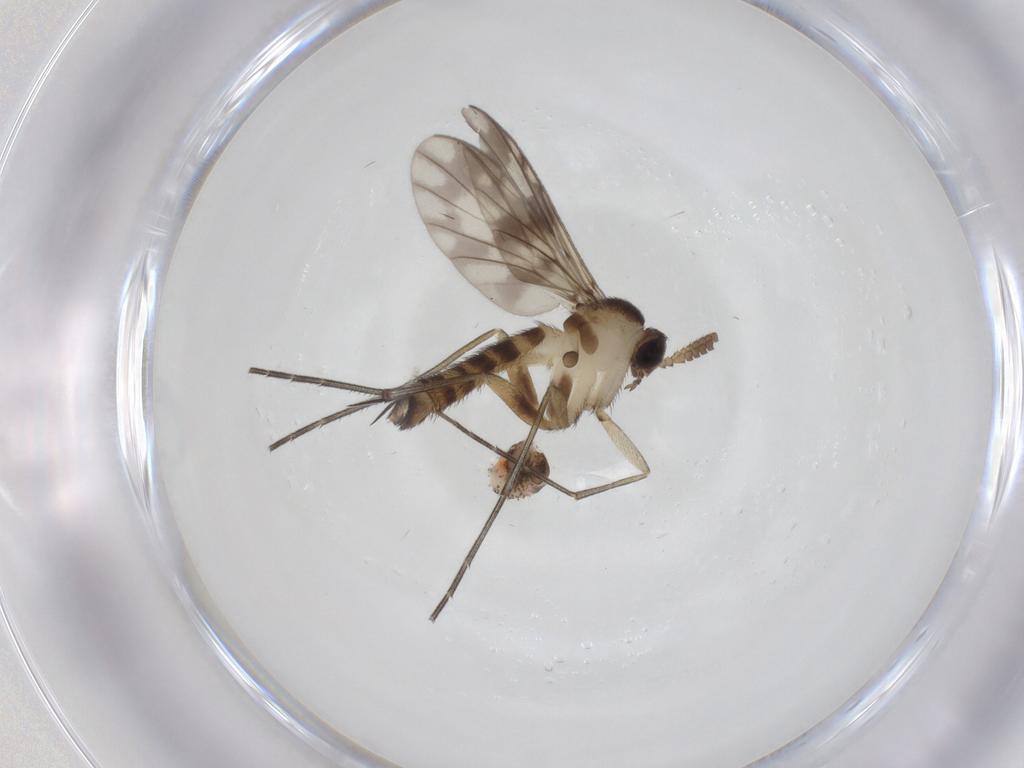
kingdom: Animalia
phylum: Arthropoda
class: Insecta
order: Diptera
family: Keroplatidae
